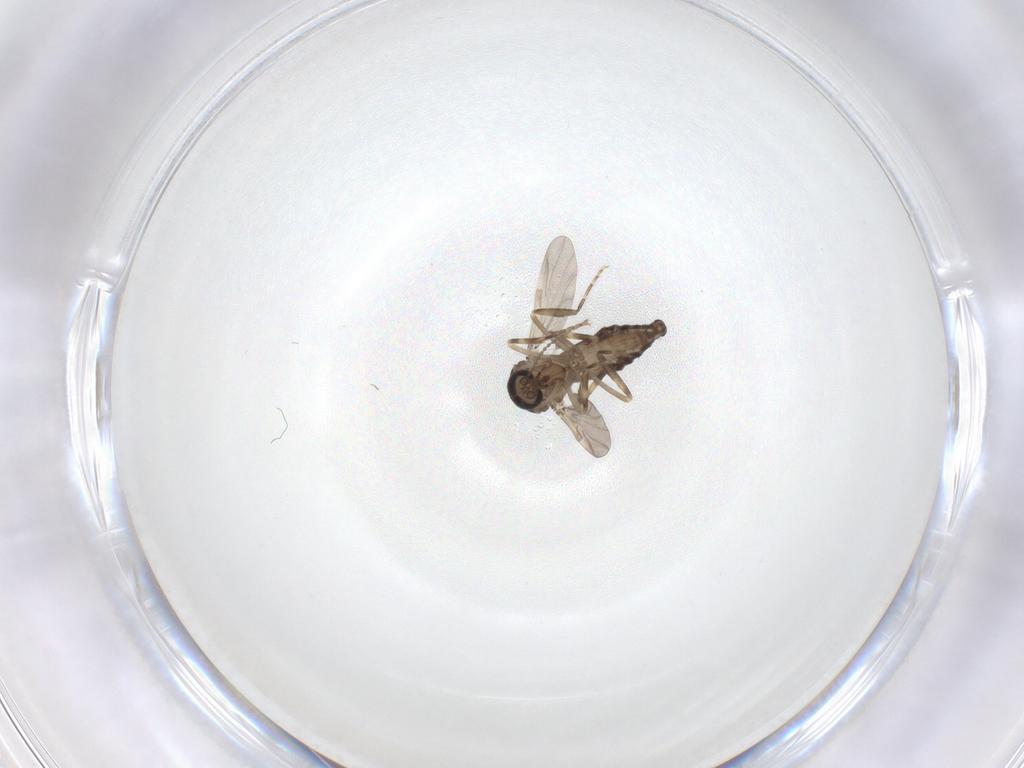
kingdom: Animalia
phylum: Arthropoda
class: Insecta
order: Diptera
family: Ceratopogonidae
